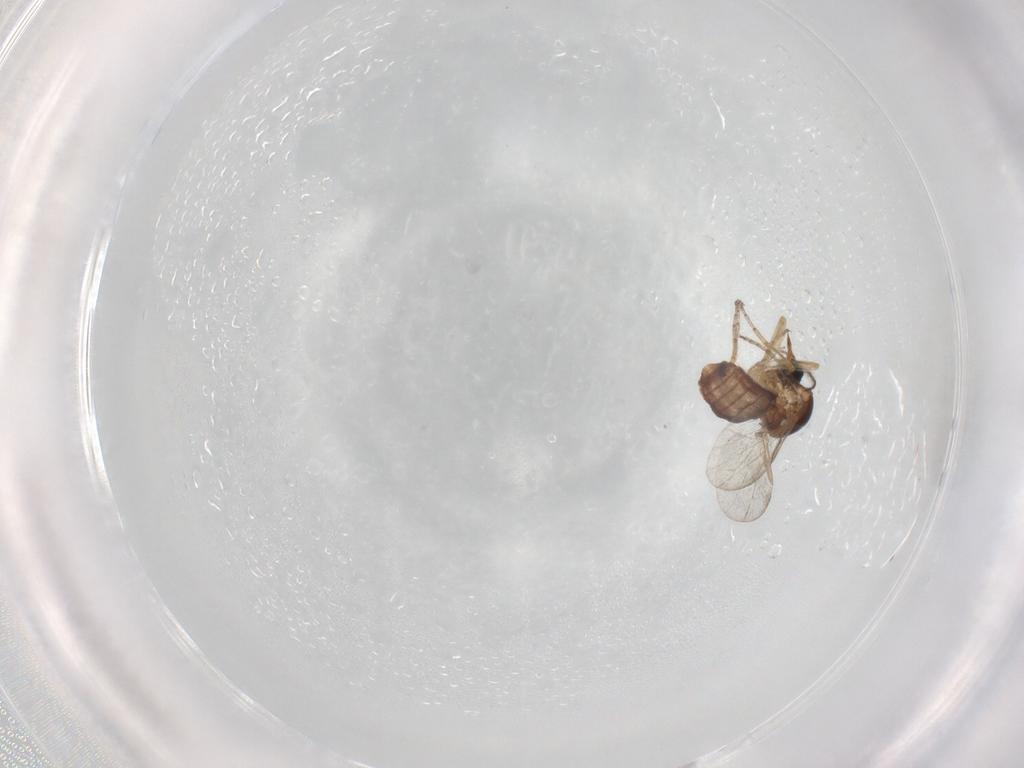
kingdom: Animalia
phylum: Arthropoda
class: Insecta
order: Diptera
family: Ceratopogonidae
